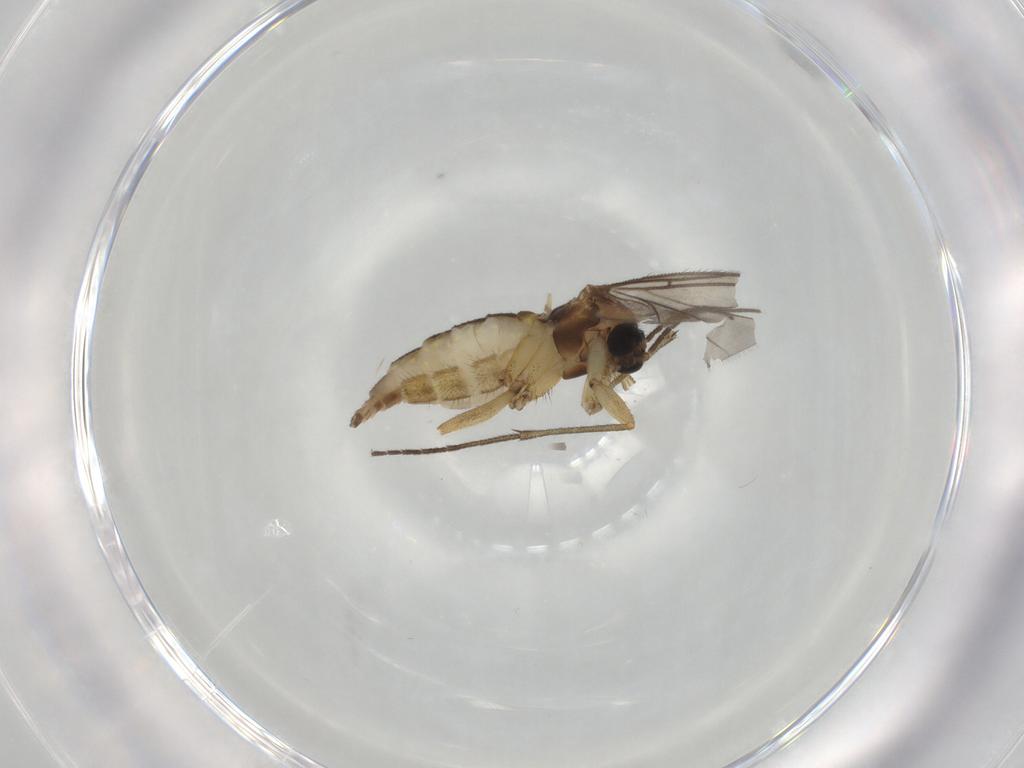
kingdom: Animalia
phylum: Arthropoda
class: Insecta
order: Diptera
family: Sciaridae
